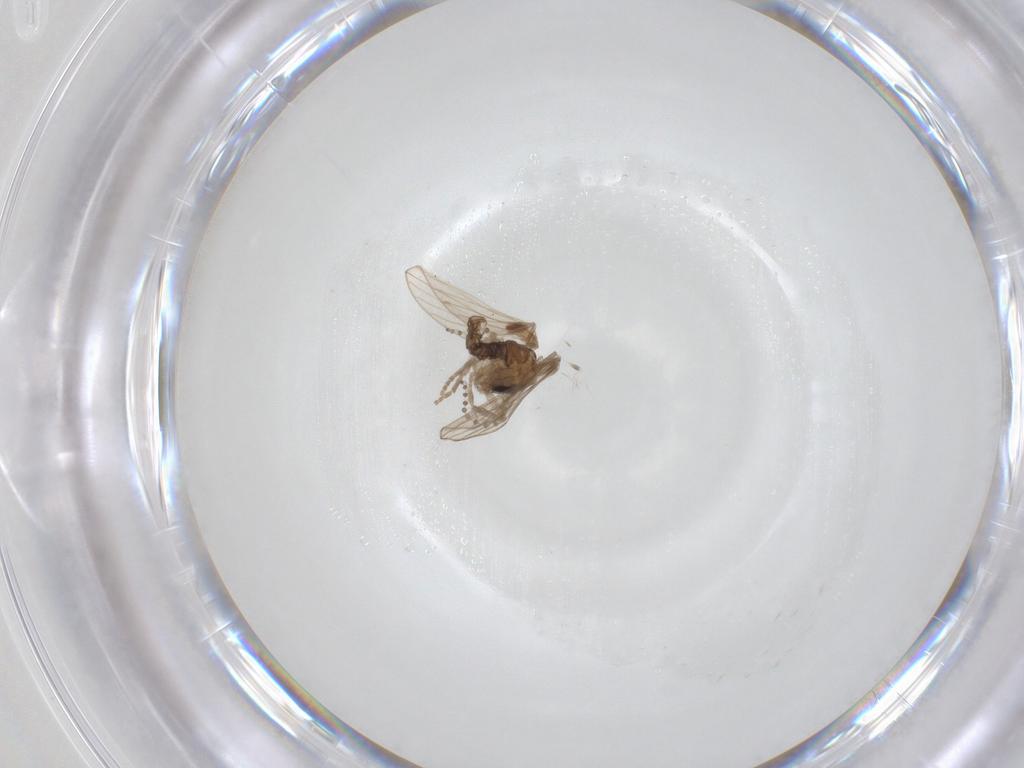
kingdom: Animalia
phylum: Arthropoda
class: Insecta
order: Diptera
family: Psychodidae
